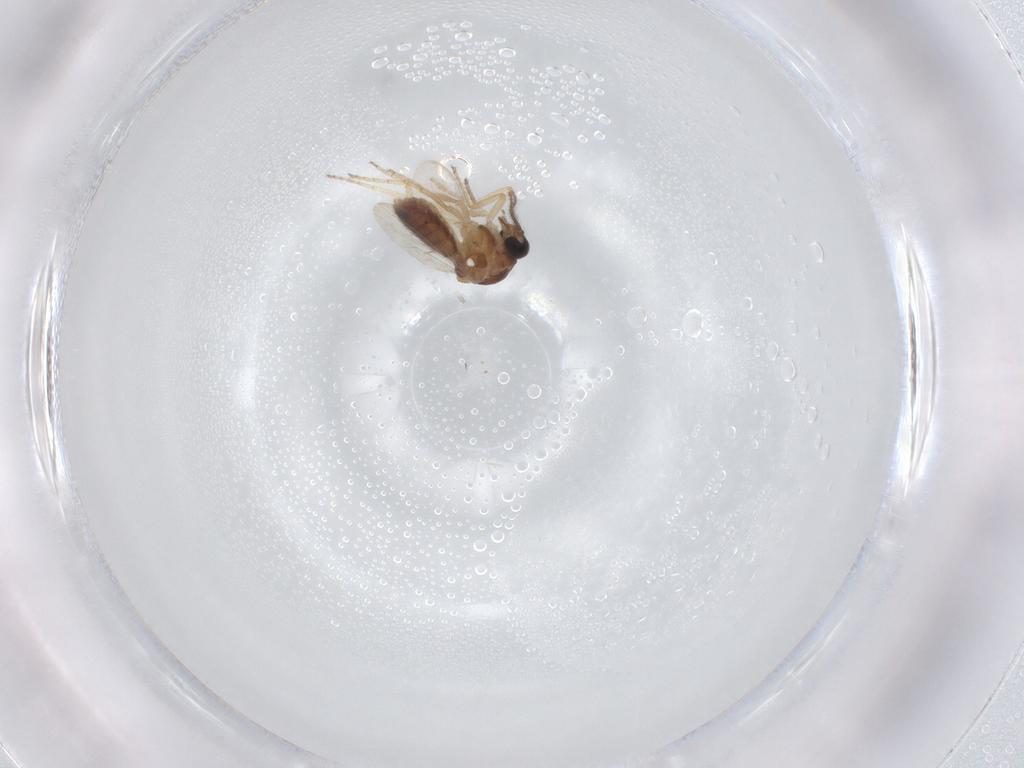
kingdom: Animalia
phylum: Arthropoda
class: Insecta
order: Diptera
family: Ceratopogonidae
